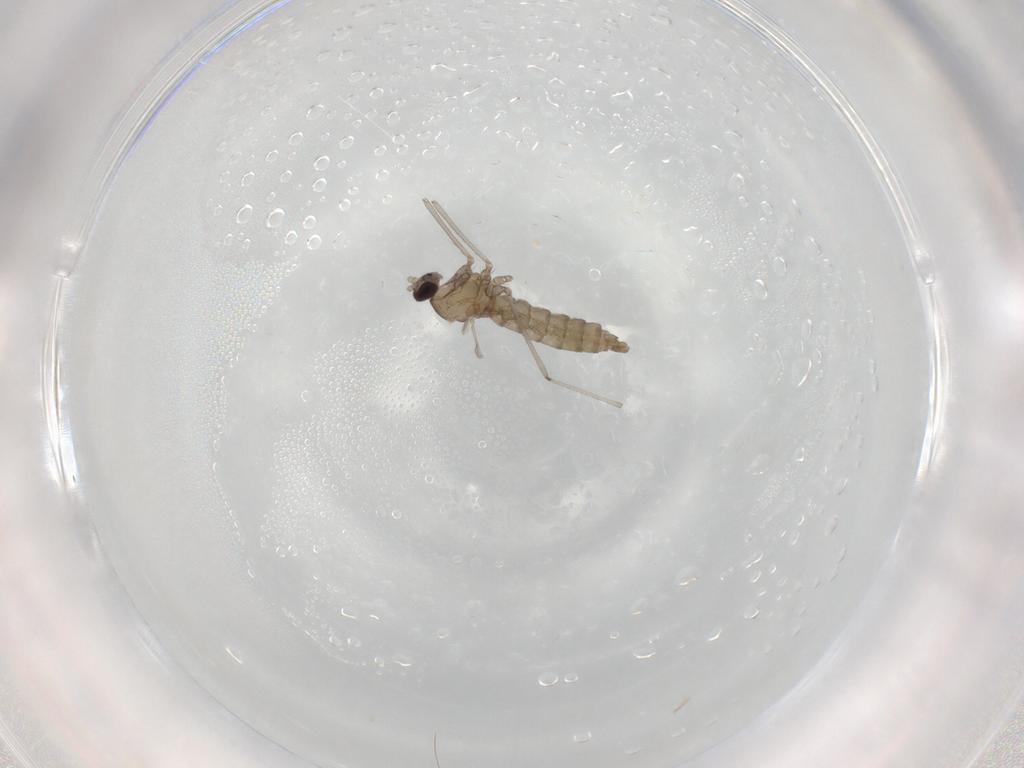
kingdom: Animalia
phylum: Arthropoda
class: Insecta
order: Diptera
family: Cecidomyiidae
